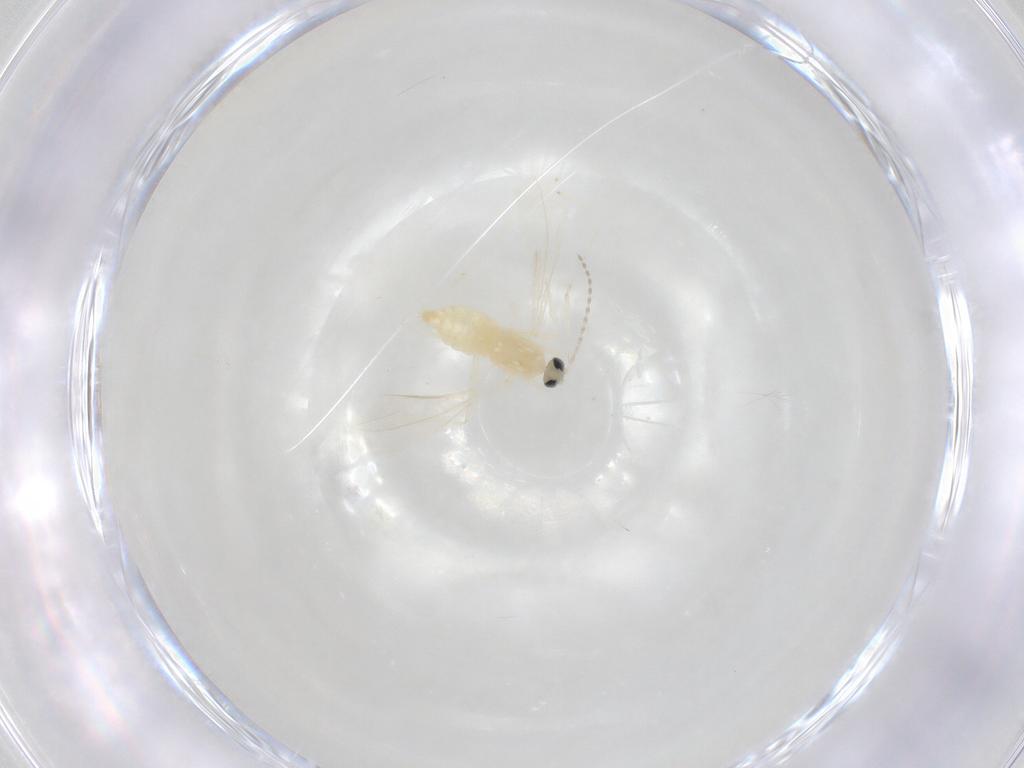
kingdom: Animalia
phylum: Arthropoda
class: Insecta
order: Diptera
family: Cecidomyiidae
